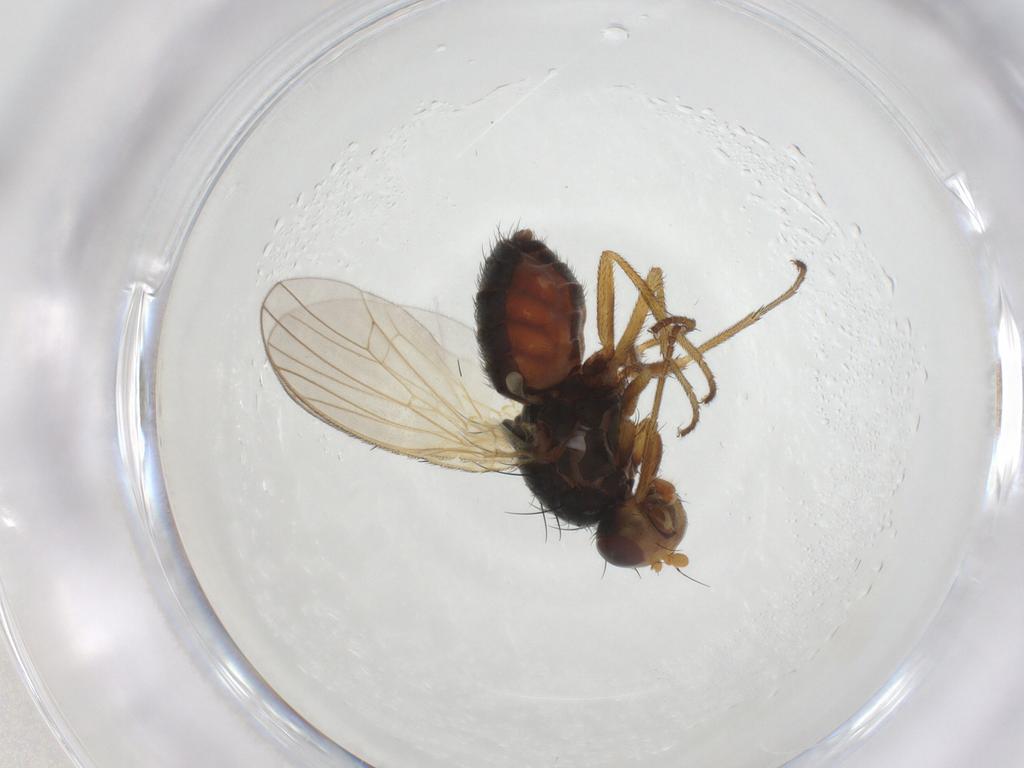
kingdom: Animalia
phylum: Arthropoda
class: Insecta
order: Diptera
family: Heleomyzidae
